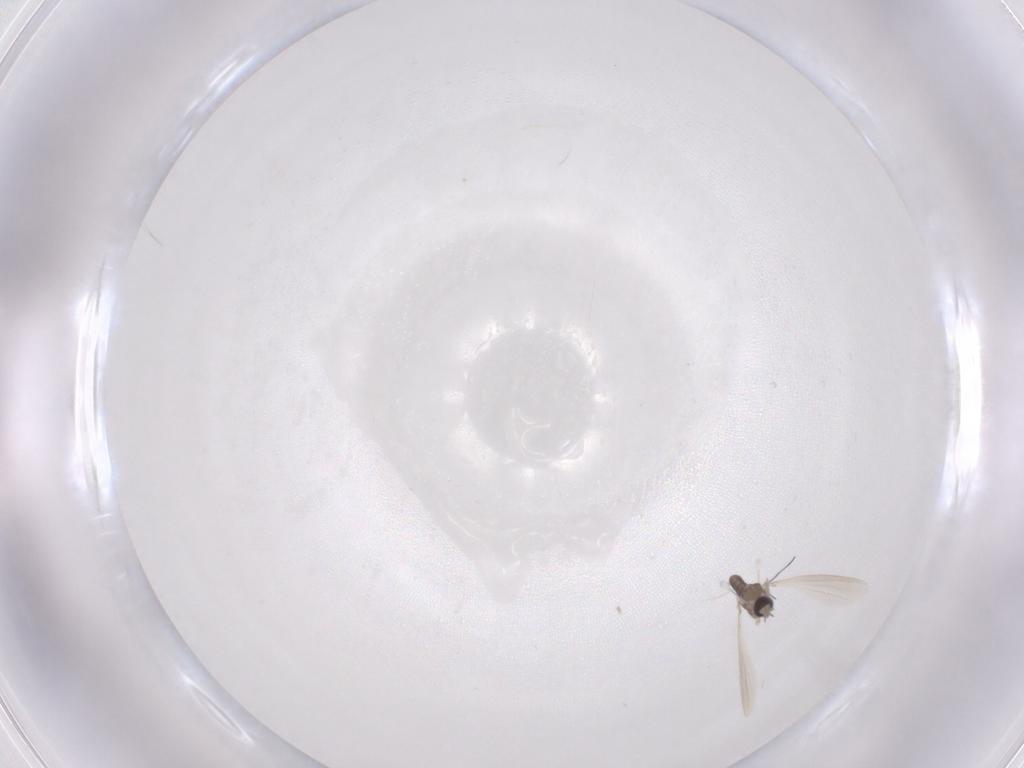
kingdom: Animalia
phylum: Arthropoda
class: Insecta
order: Diptera
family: Cecidomyiidae
